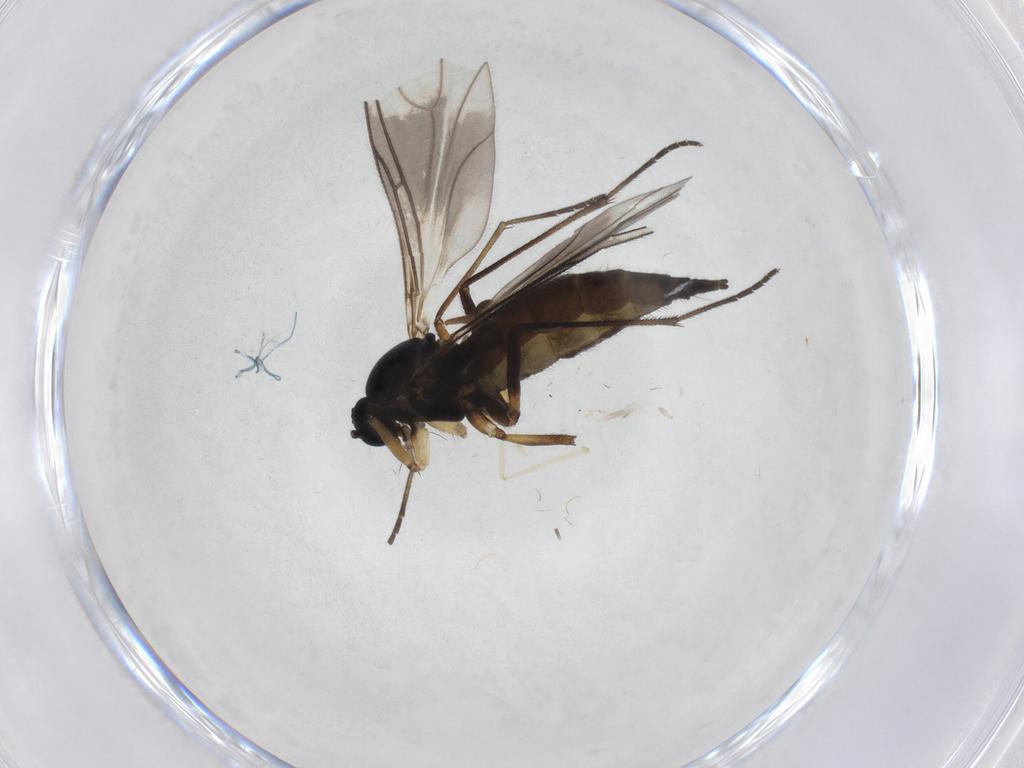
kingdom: Animalia
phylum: Arthropoda
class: Insecta
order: Diptera
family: Sciaridae
